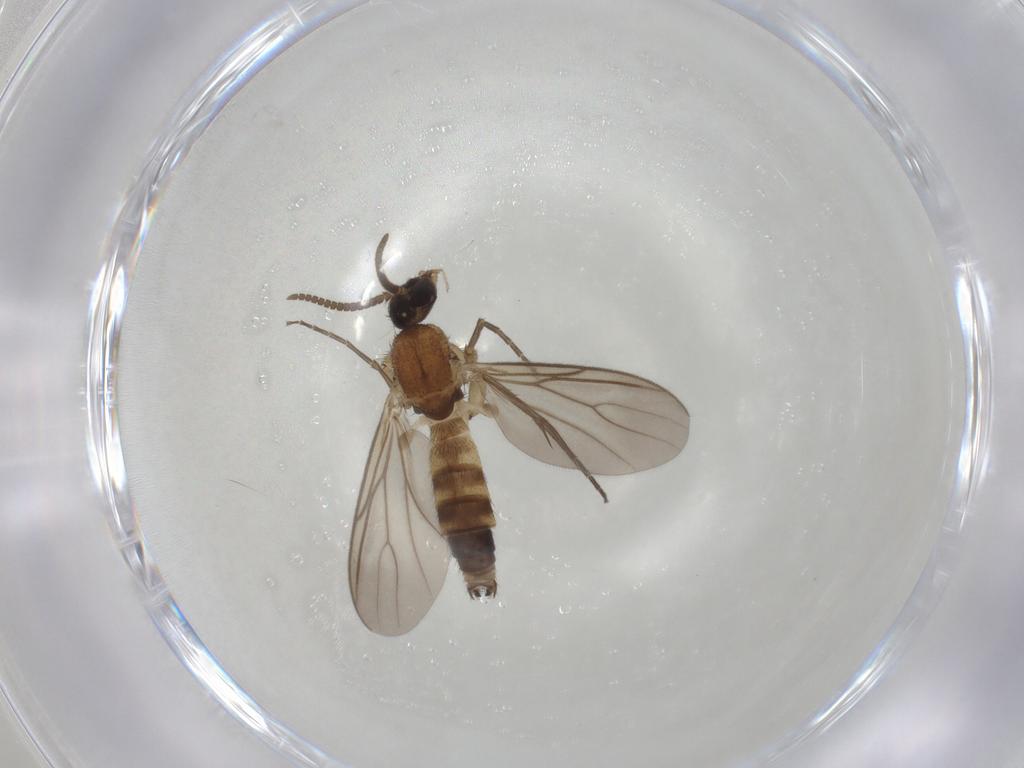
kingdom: Animalia
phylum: Arthropoda
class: Insecta
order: Diptera
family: Mycetophilidae
